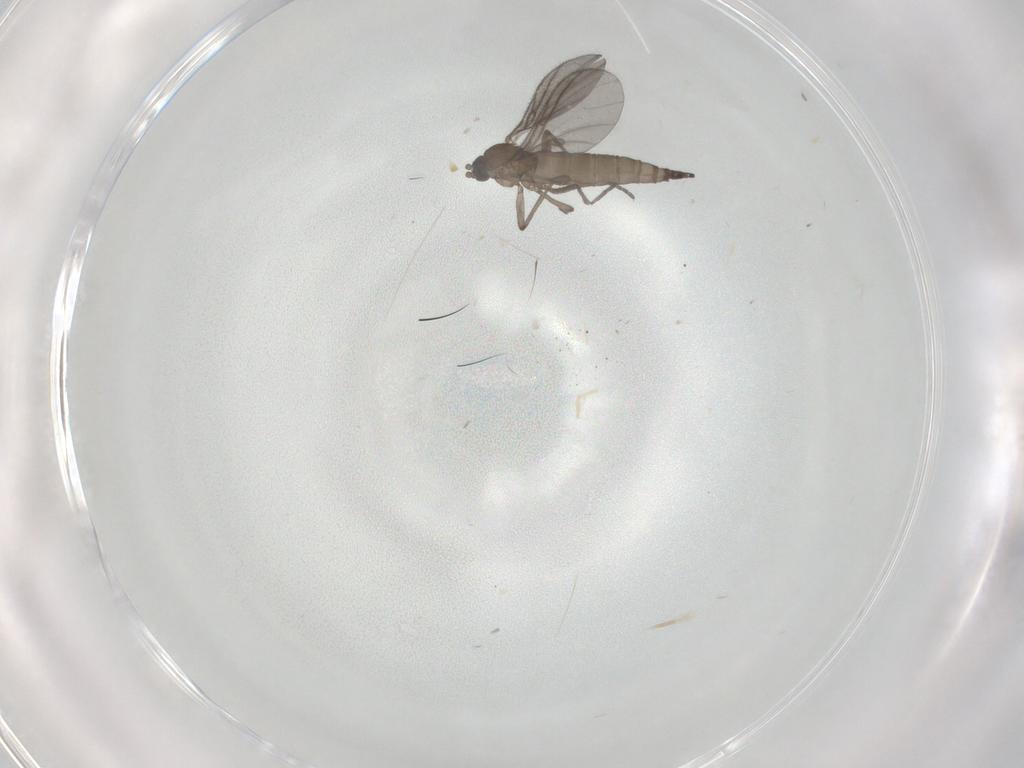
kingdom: Animalia
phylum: Arthropoda
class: Insecta
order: Diptera
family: Sciaridae
